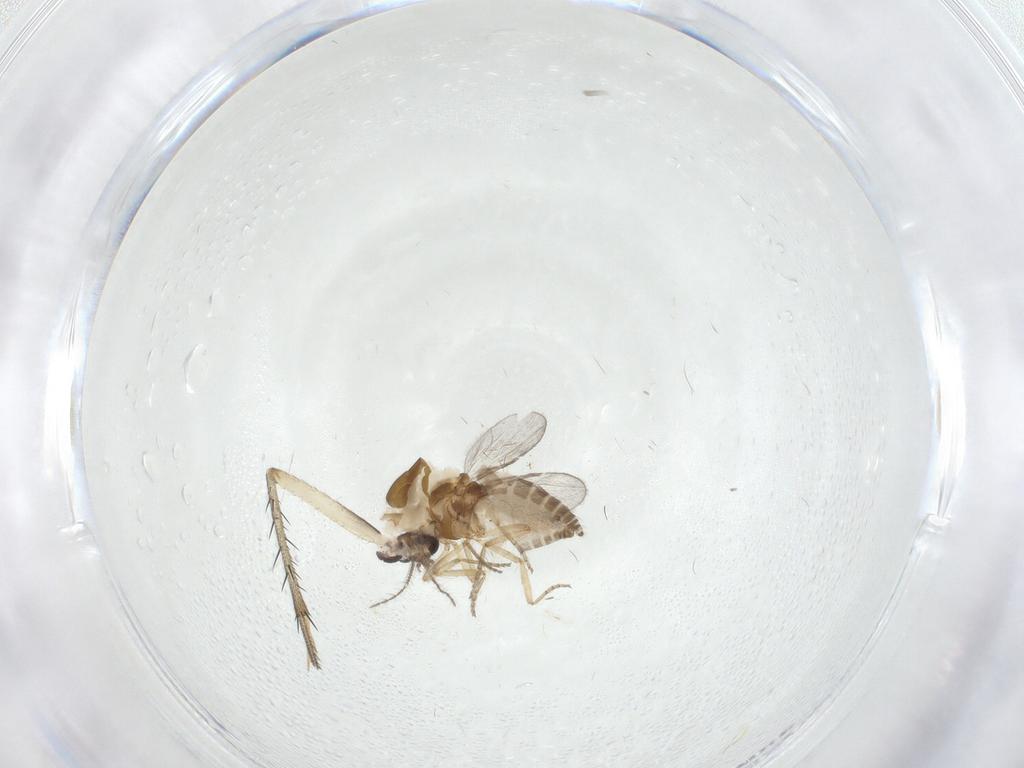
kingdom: Animalia
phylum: Arthropoda
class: Insecta
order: Diptera
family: Ceratopogonidae
